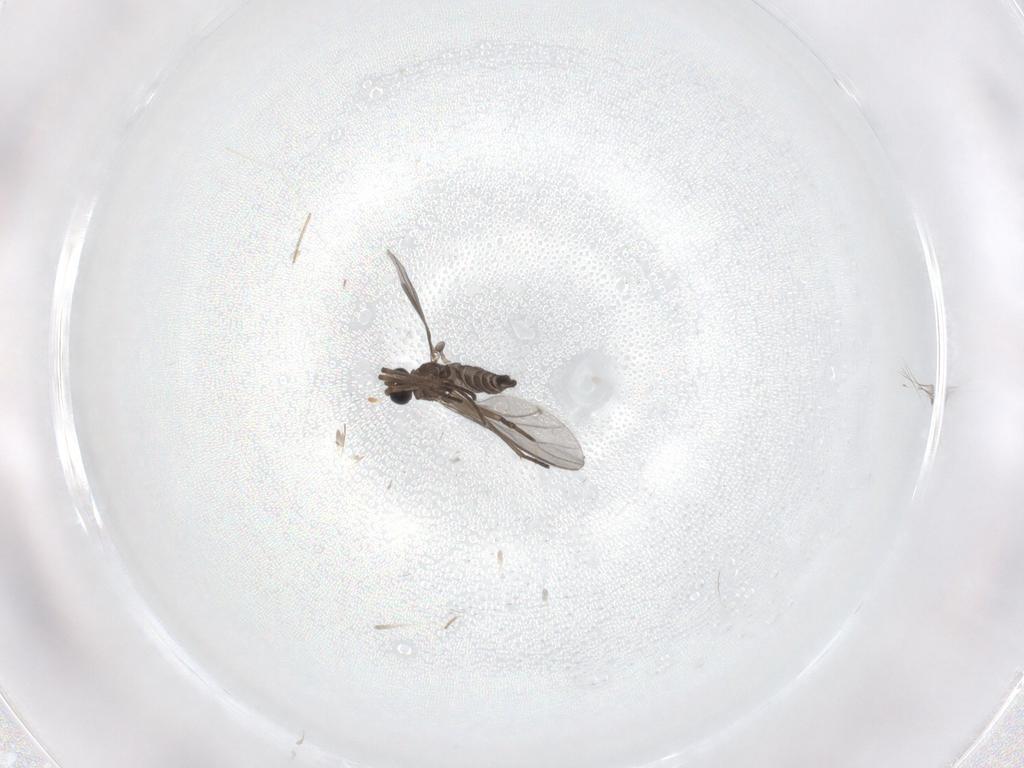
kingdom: Animalia
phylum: Arthropoda
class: Insecta
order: Diptera
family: Sciaridae
